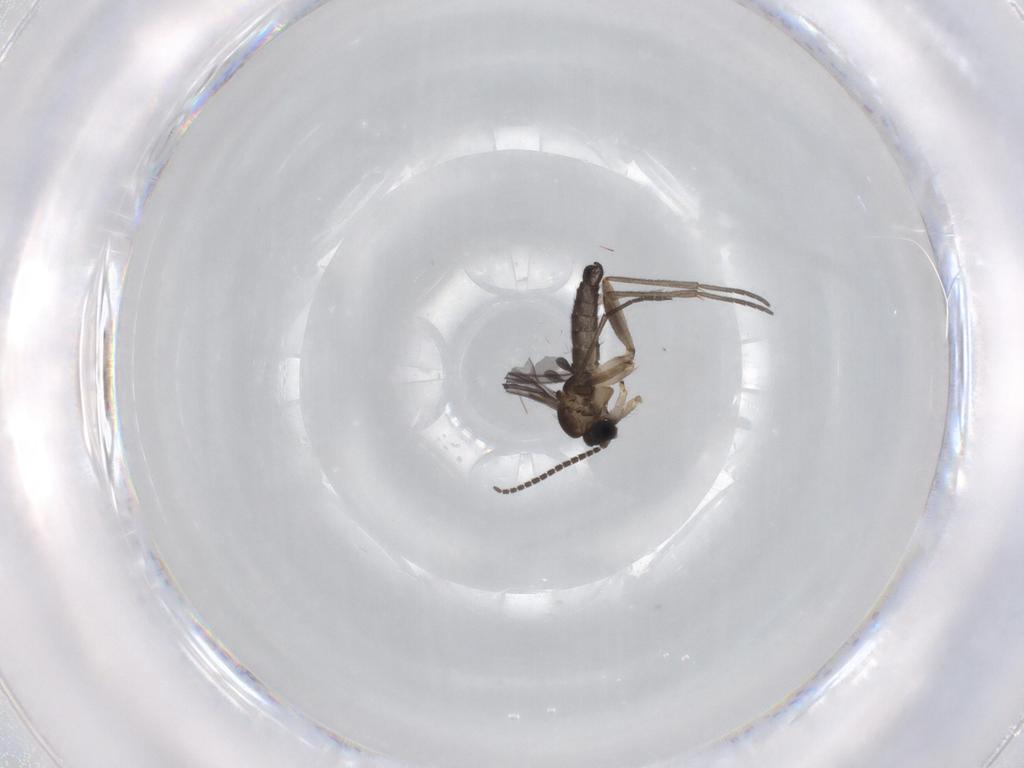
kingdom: Animalia
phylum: Arthropoda
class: Insecta
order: Diptera
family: Sciaridae
